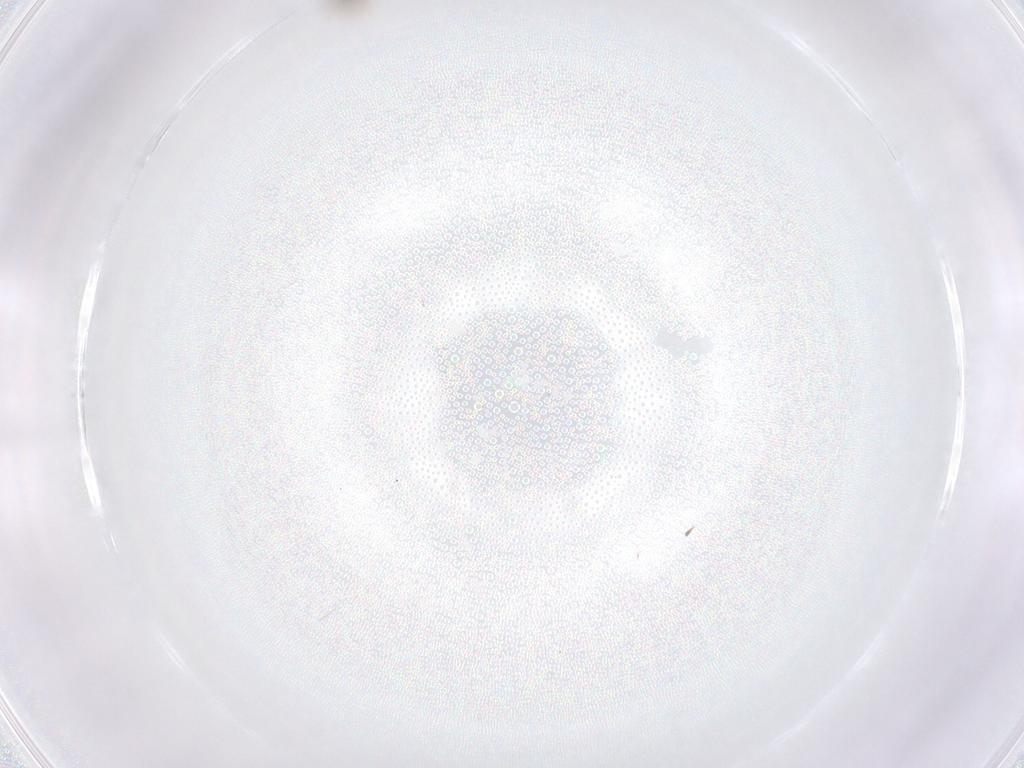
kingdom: Animalia
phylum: Arthropoda
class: Insecta
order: Diptera
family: Cecidomyiidae
